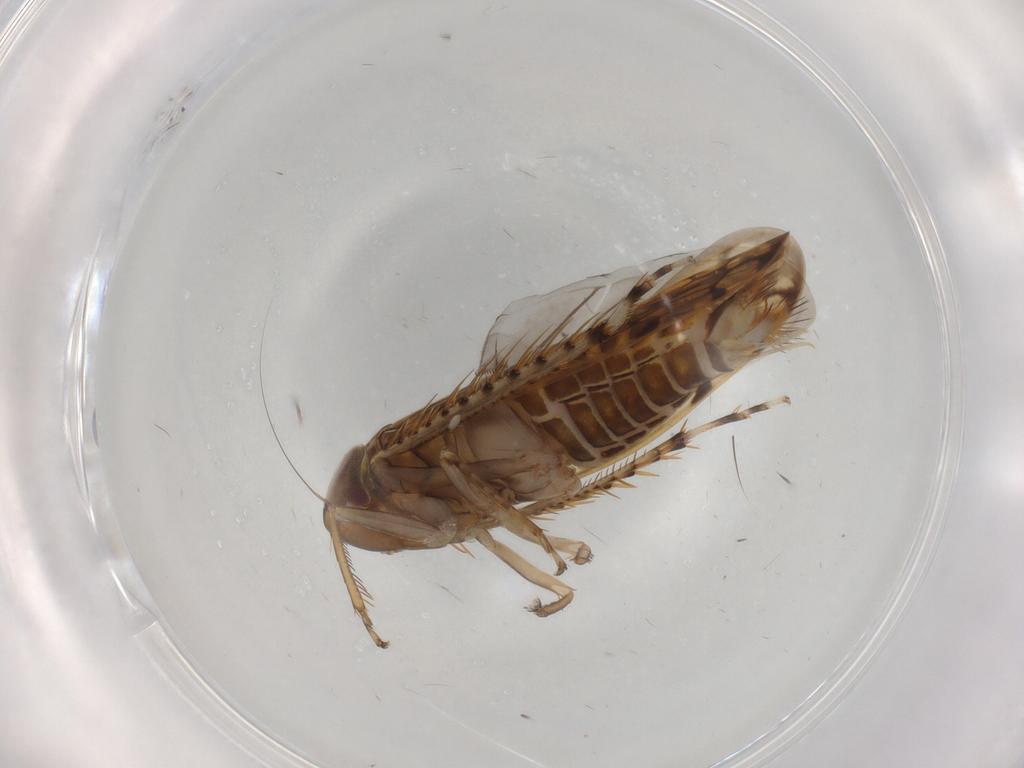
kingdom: Animalia
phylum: Arthropoda
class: Insecta
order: Hemiptera
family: Cicadellidae
